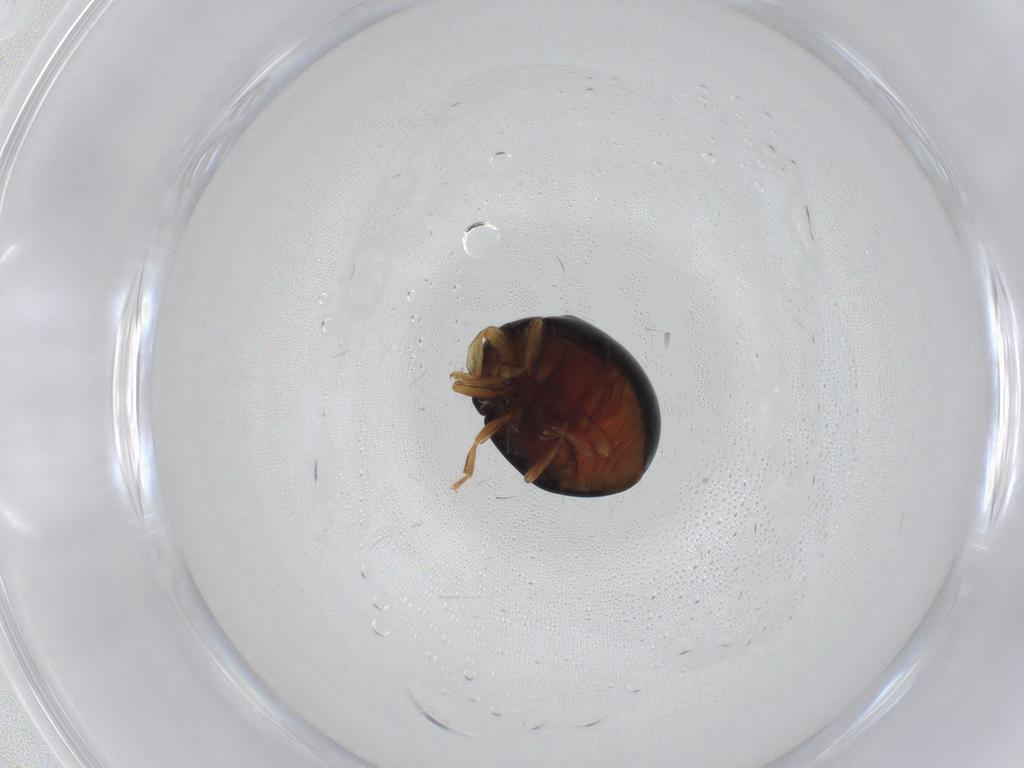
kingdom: Animalia
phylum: Arthropoda
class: Insecta
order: Coleoptera
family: Coccinellidae
